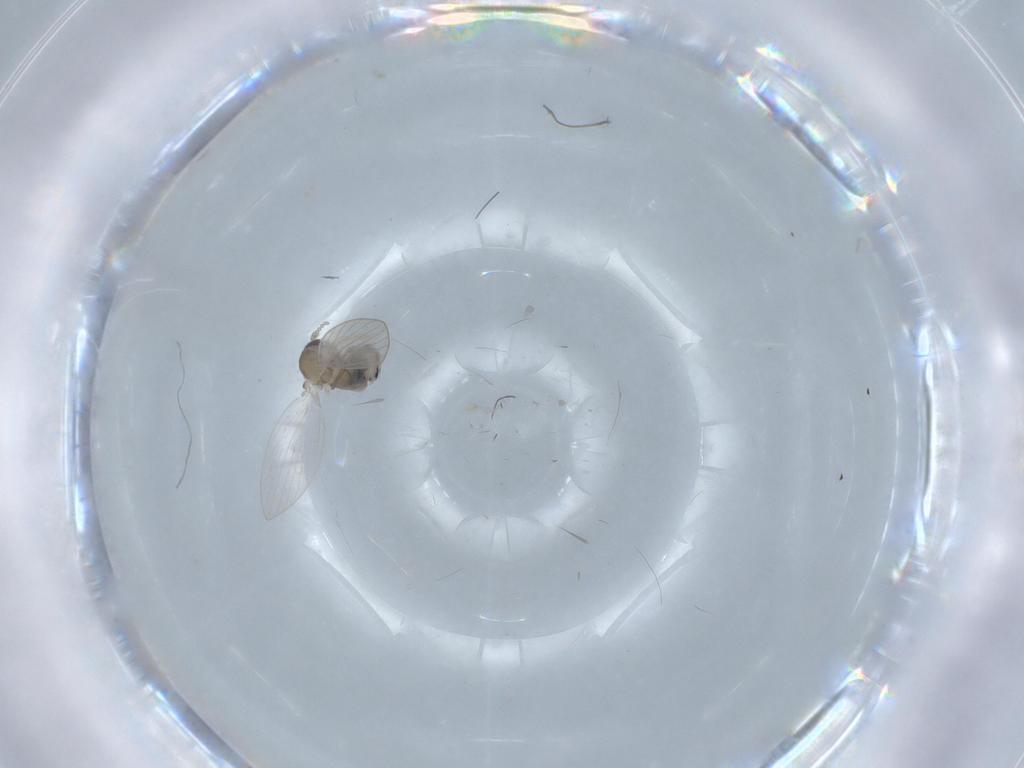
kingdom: Animalia
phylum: Arthropoda
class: Insecta
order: Diptera
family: Psychodidae
